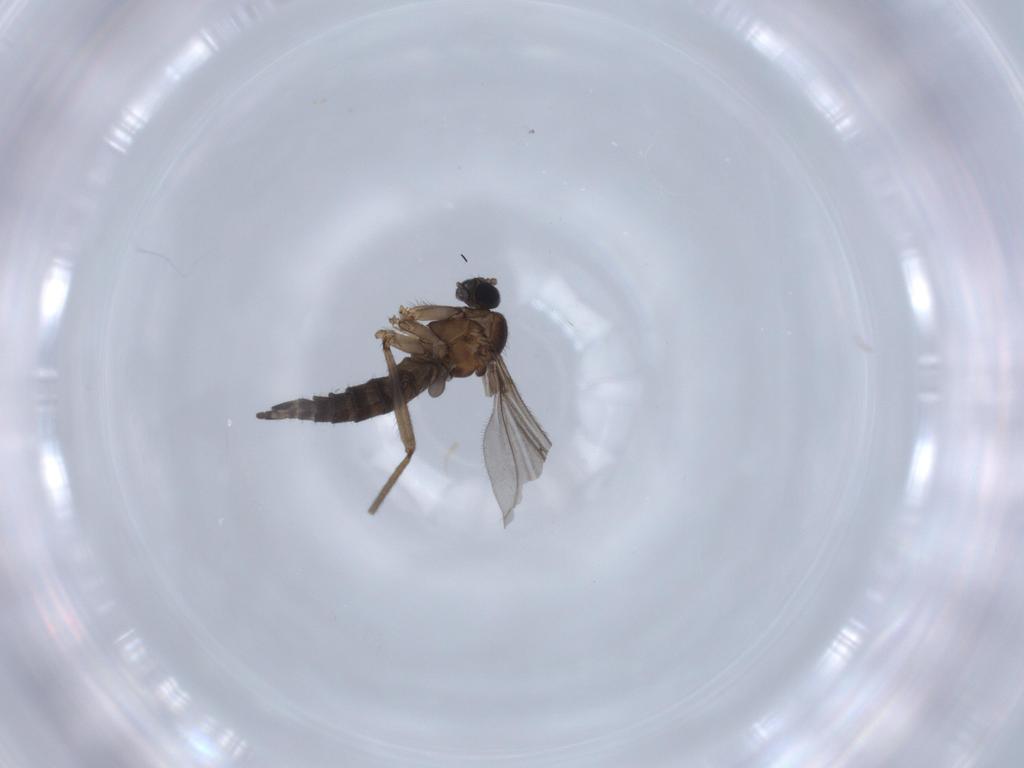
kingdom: Animalia
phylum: Arthropoda
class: Insecta
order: Diptera
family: Sciaridae
